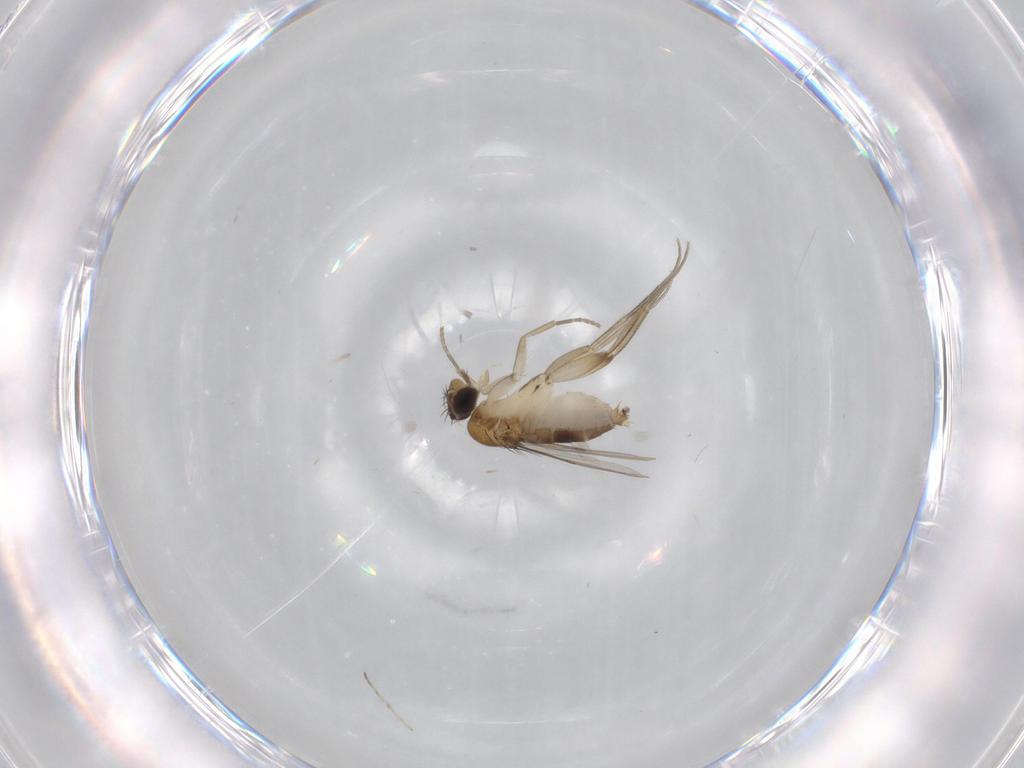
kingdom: Animalia
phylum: Arthropoda
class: Insecta
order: Diptera
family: Phoridae
